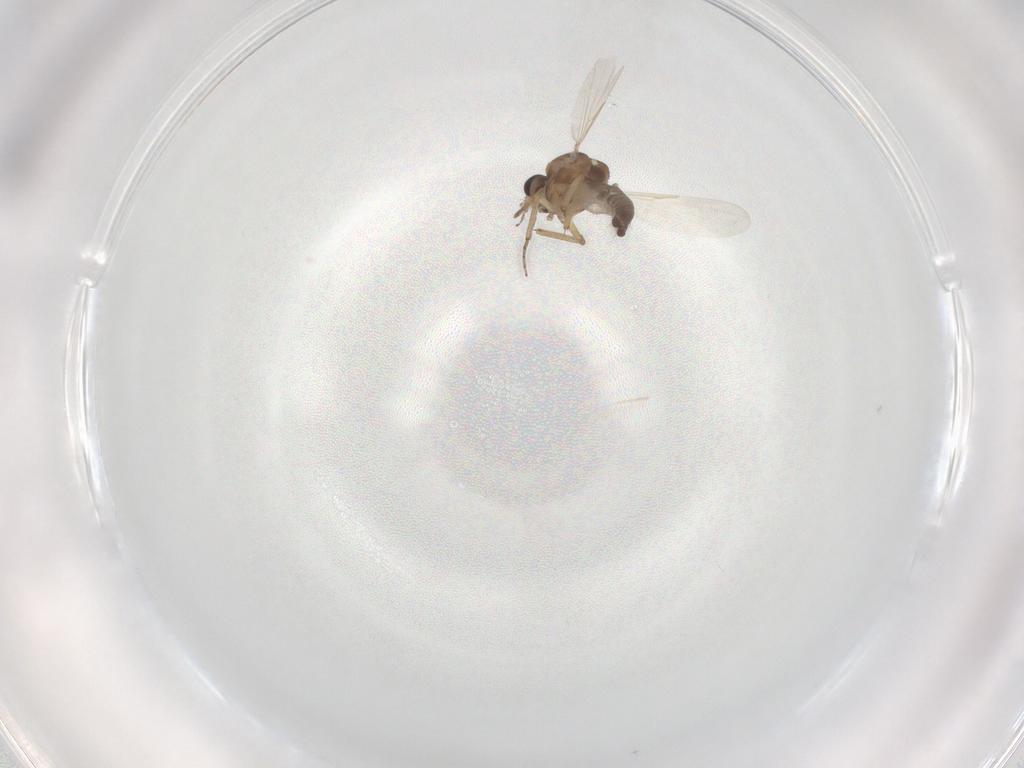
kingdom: Animalia
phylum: Arthropoda
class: Insecta
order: Diptera
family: Ceratopogonidae
